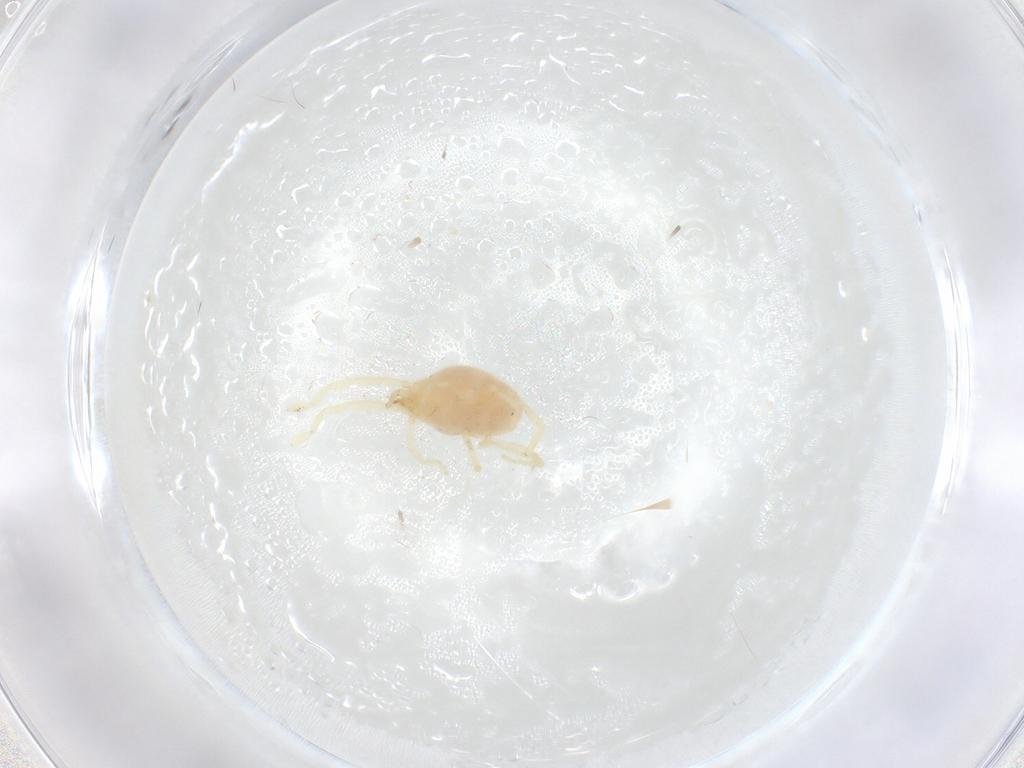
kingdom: Animalia
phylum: Arthropoda
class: Arachnida
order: Trombidiformes
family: Erythraeidae
